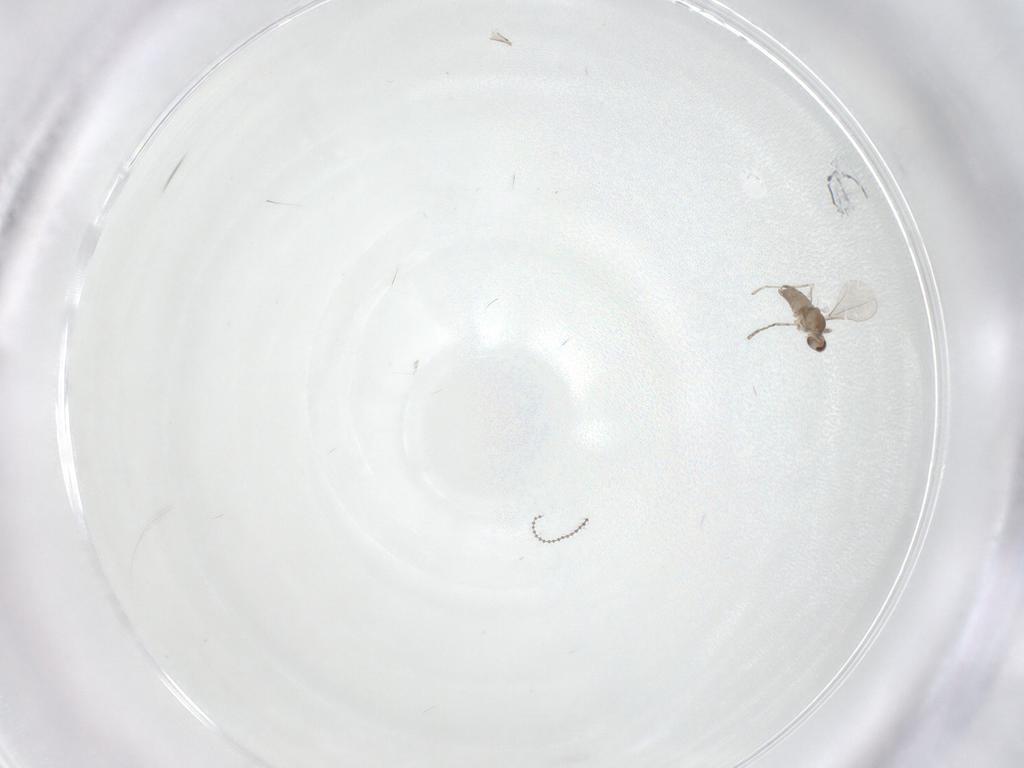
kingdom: Animalia
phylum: Arthropoda
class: Insecta
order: Diptera
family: Cecidomyiidae
